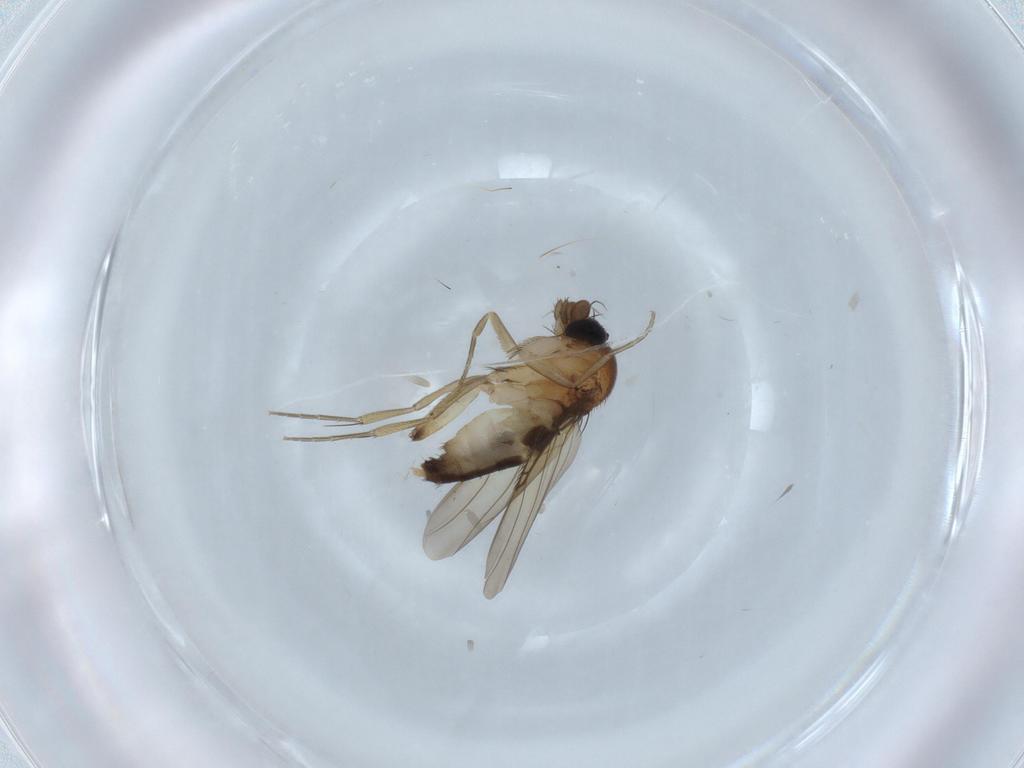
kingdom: Animalia
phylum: Arthropoda
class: Insecta
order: Diptera
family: Phoridae
